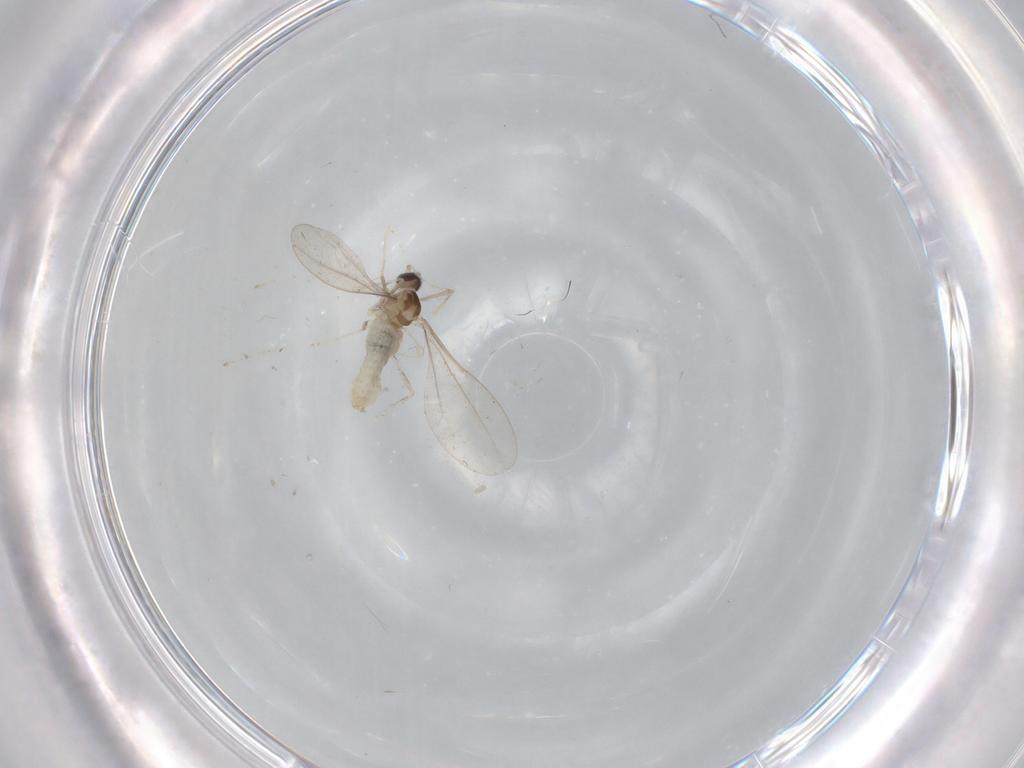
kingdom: Animalia
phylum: Arthropoda
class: Insecta
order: Diptera
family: Cecidomyiidae
